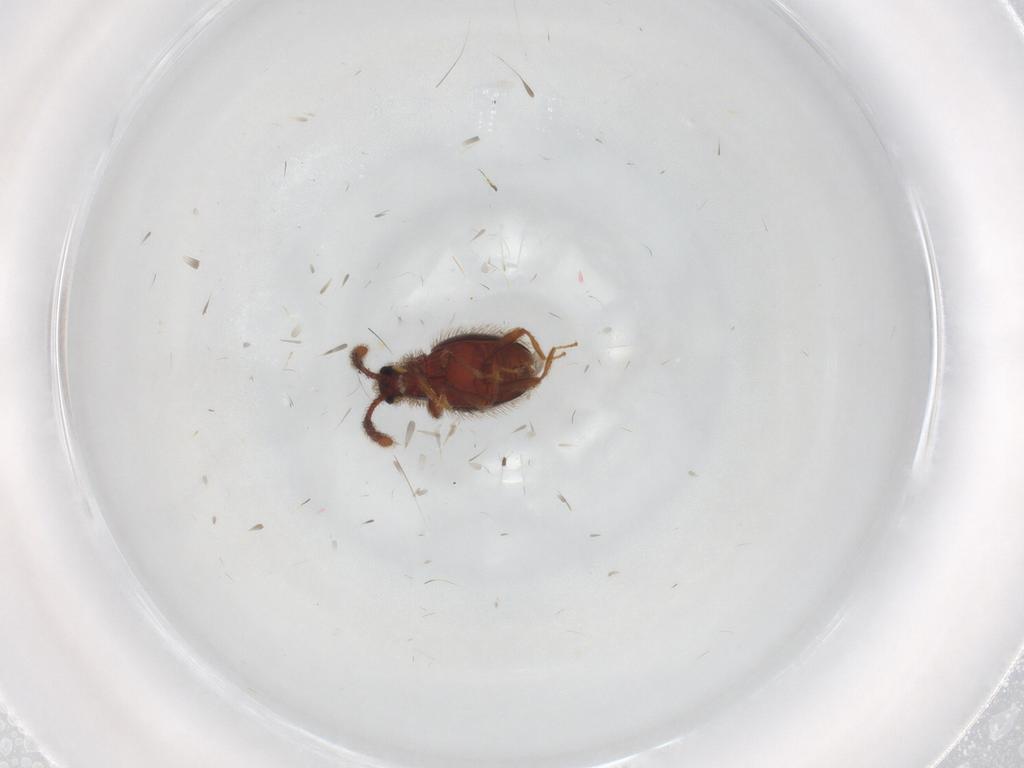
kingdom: Animalia
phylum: Arthropoda
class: Insecta
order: Coleoptera
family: Staphylinidae
